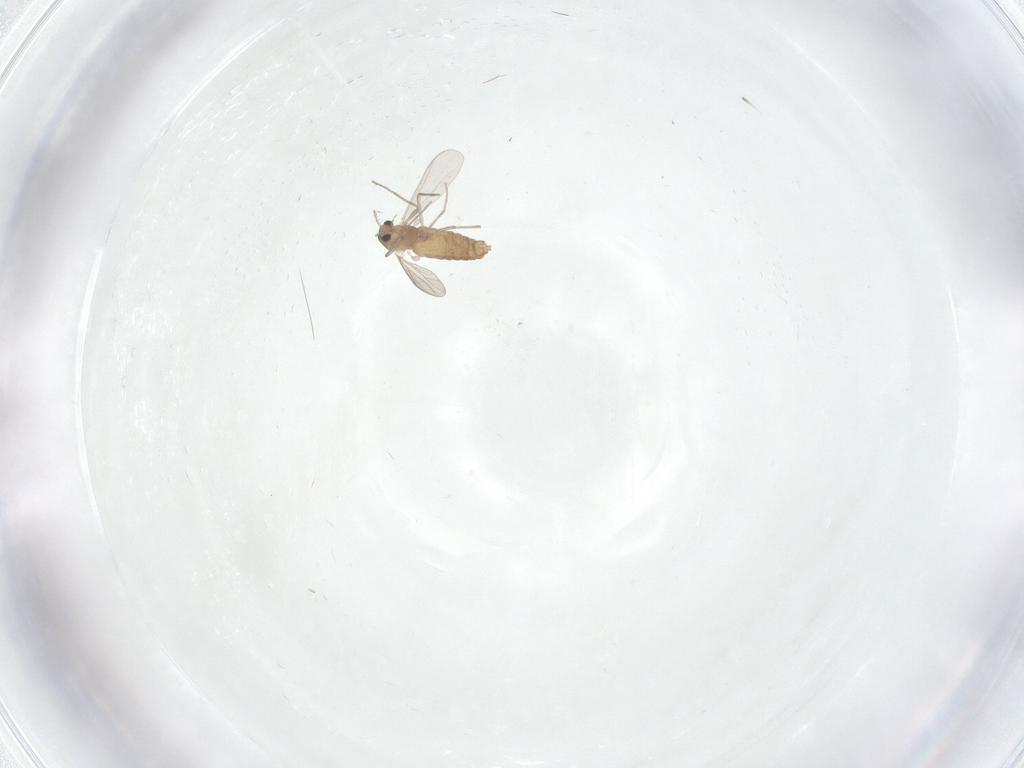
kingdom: Animalia
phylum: Arthropoda
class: Insecta
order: Diptera
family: Chironomidae
